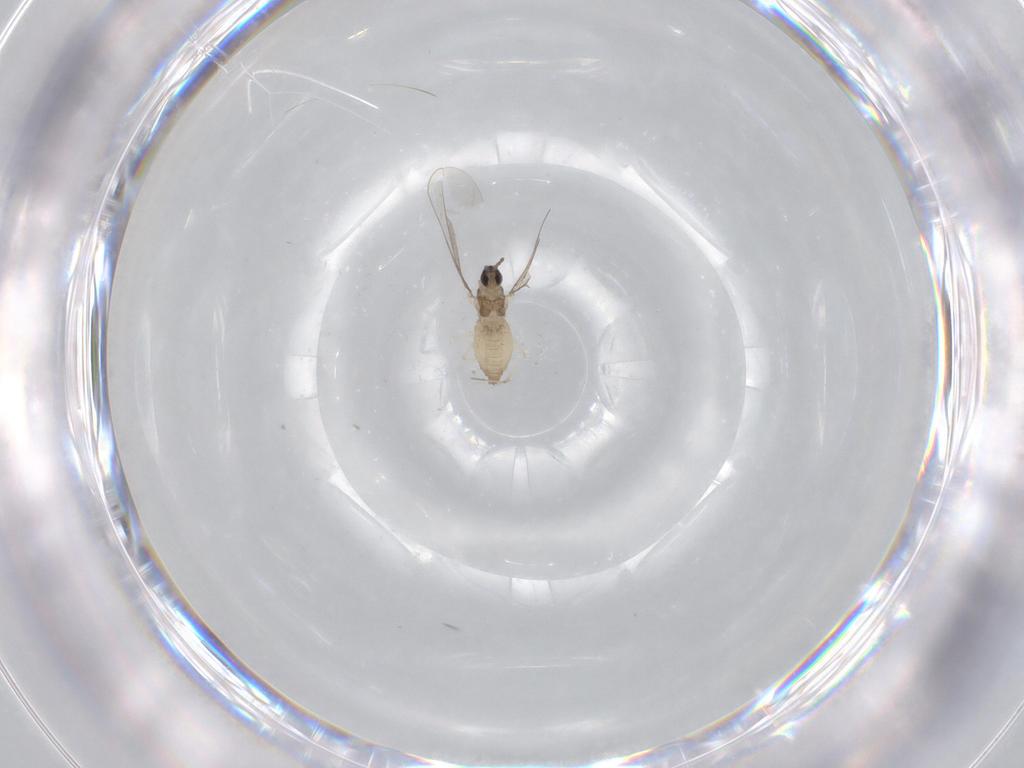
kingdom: Animalia
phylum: Arthropoda
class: Insecta
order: Diptera
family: Cecidomyiidae
